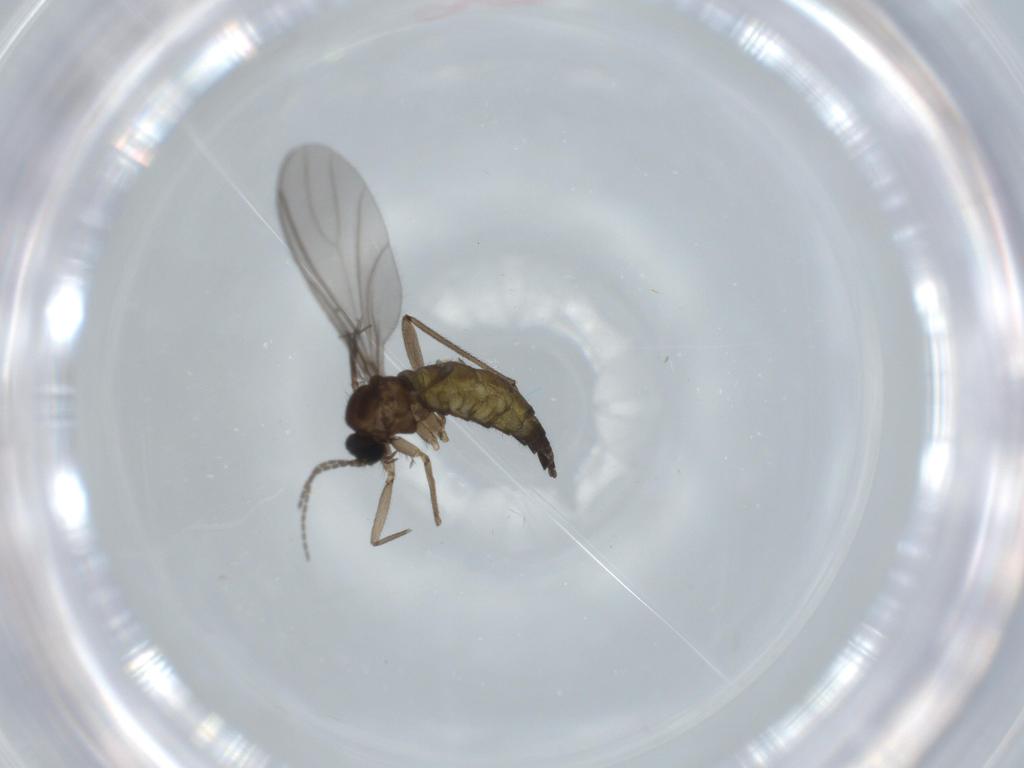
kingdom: Animalia
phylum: Arthropoda
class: Insecta
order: Diptera
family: Sciaridae
